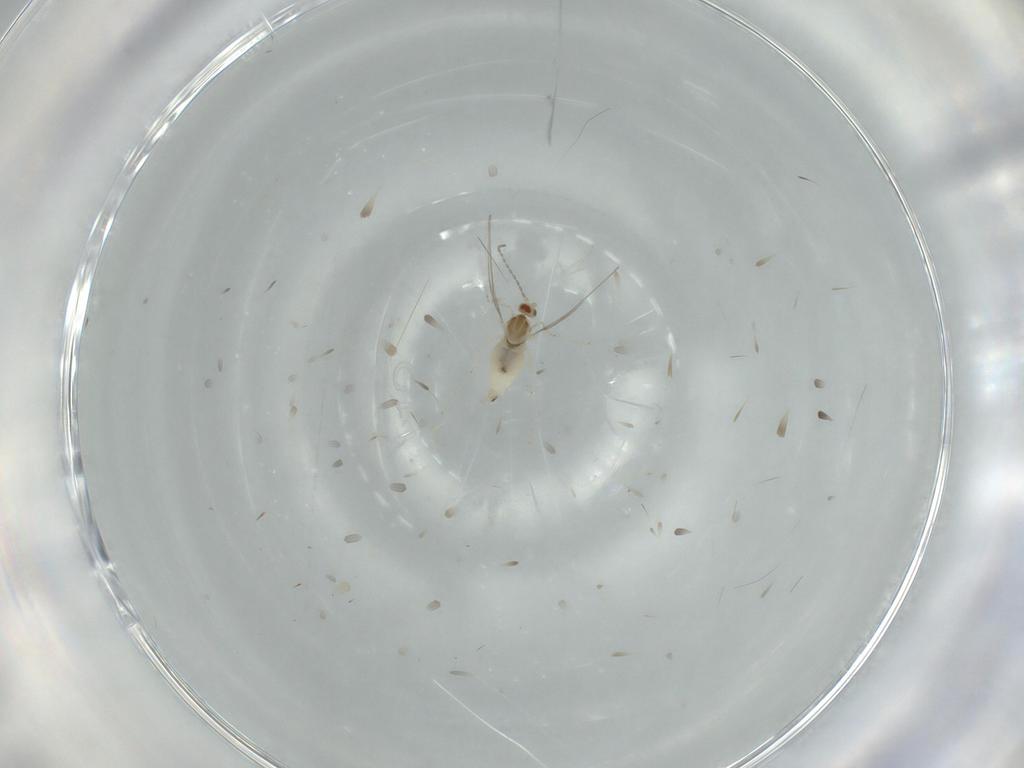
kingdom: Animalia
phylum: Arthropoda
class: Insecta
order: Diptera
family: Cecidomyiidae
